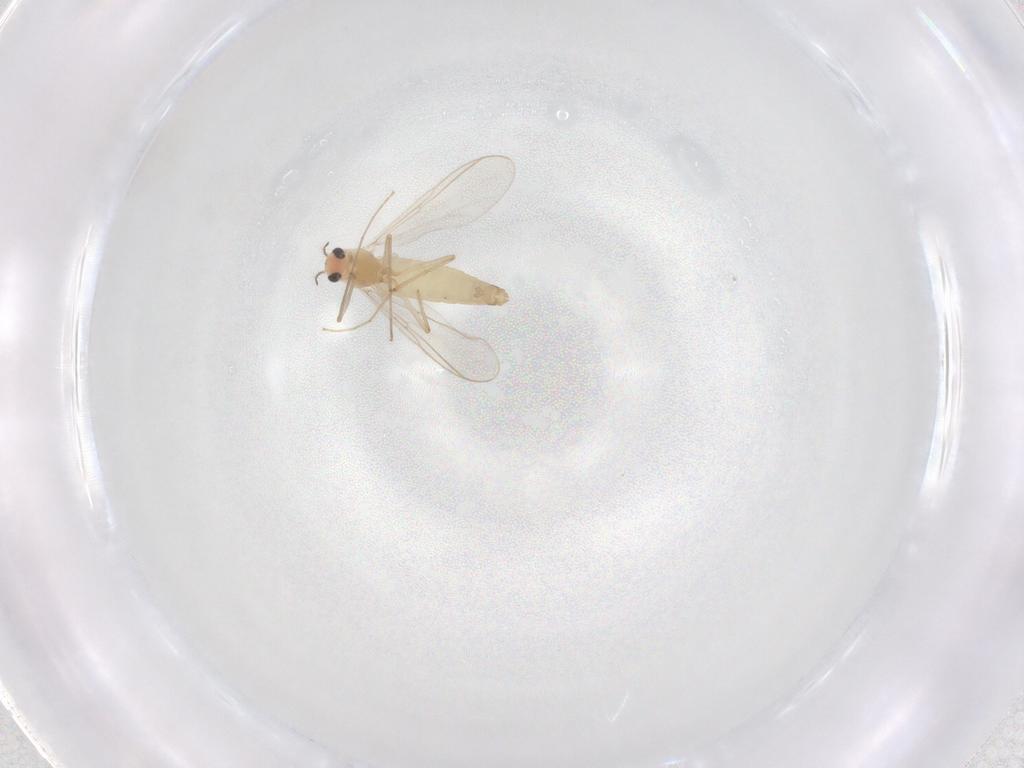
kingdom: Animalia
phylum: Arthropoda
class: Insecta
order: Diptera
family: Chironomidae
